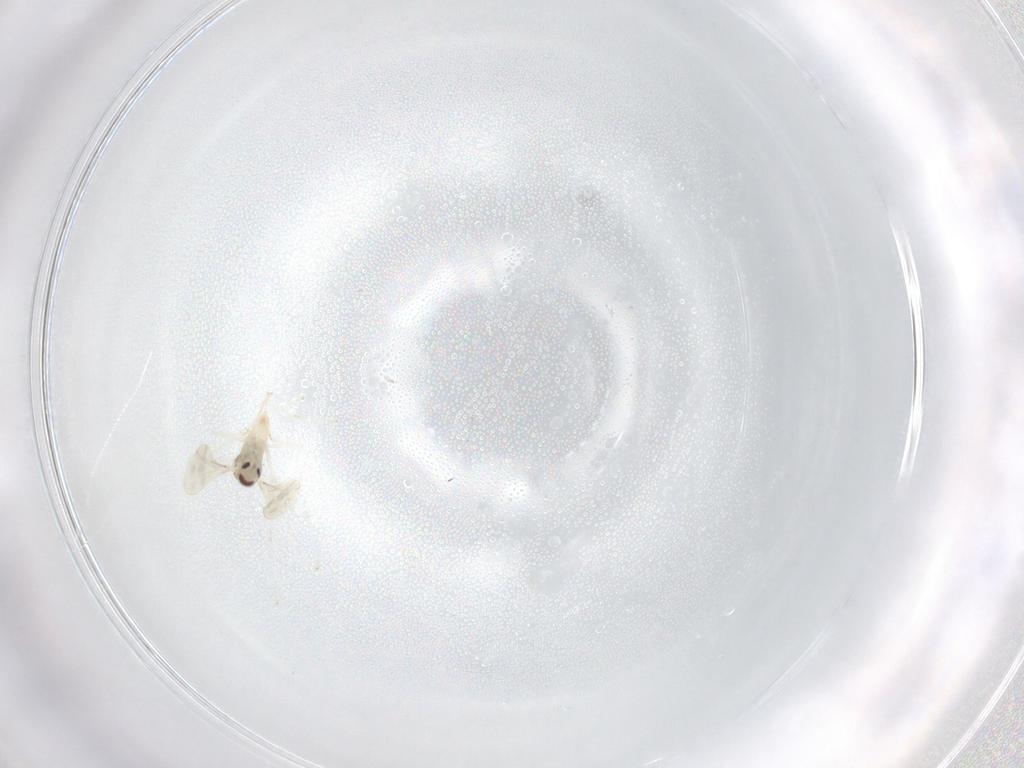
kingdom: Animalia
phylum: Arthropoda
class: Insecta
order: Diptera
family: Cecidomyiidae
